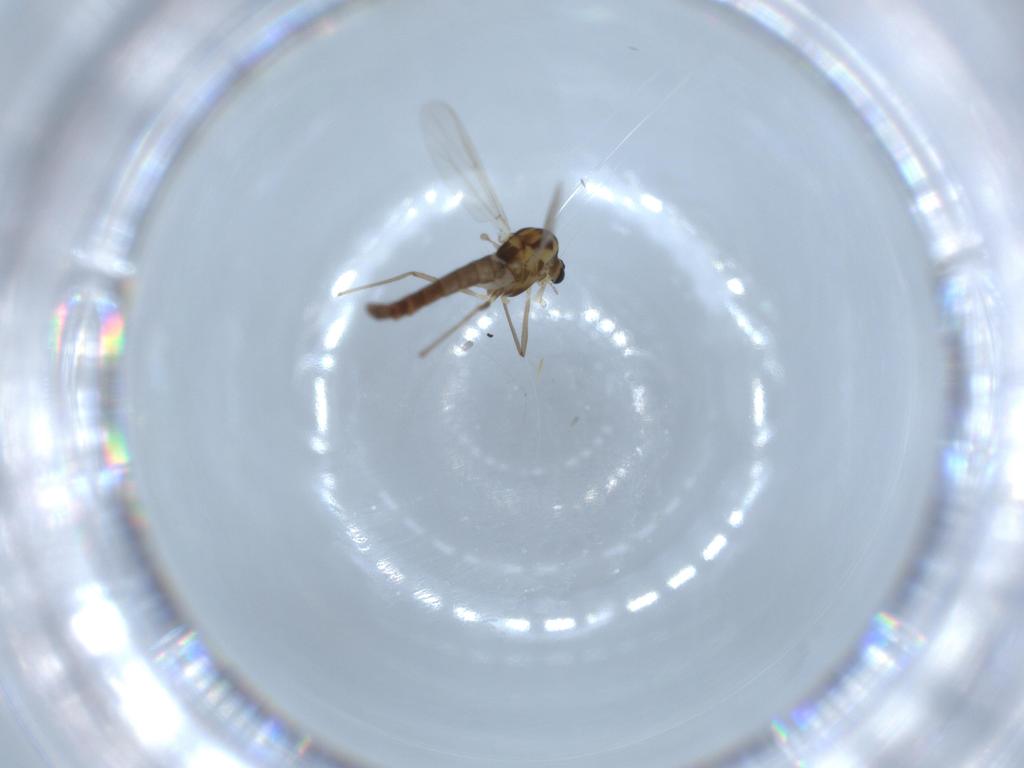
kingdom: Animalia
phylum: Arthropoda
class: Insecta
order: Diptera
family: Chironomidae
